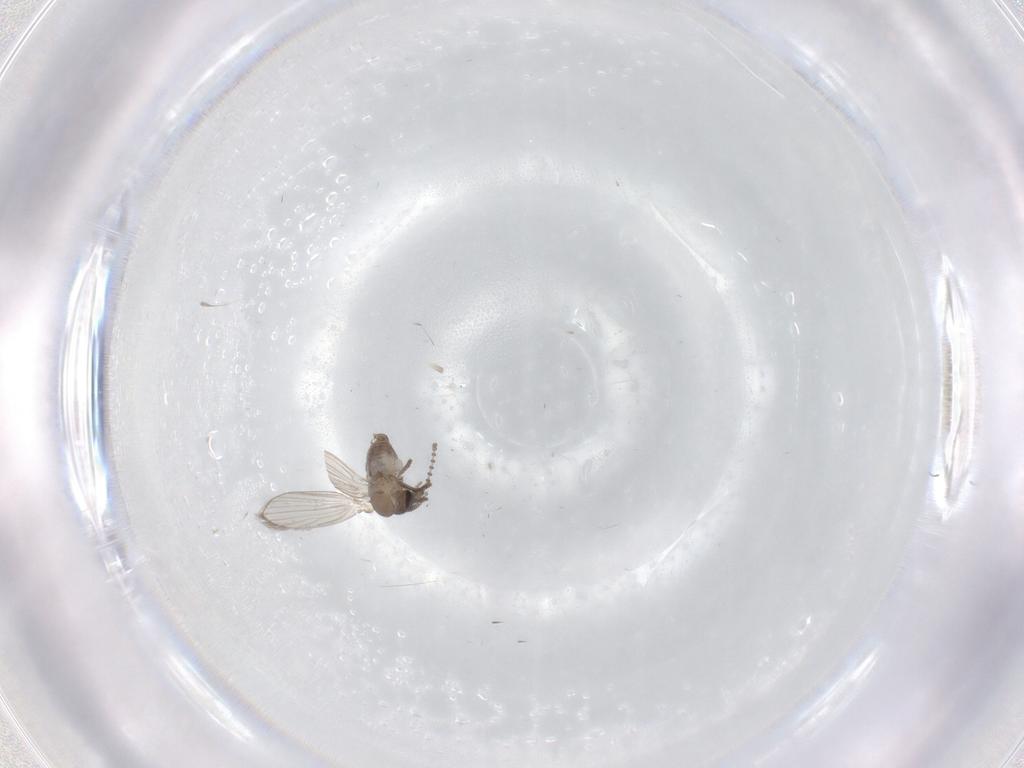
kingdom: Animalia
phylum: Arthropoda
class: Insecta
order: Diptera
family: Psychodidae
